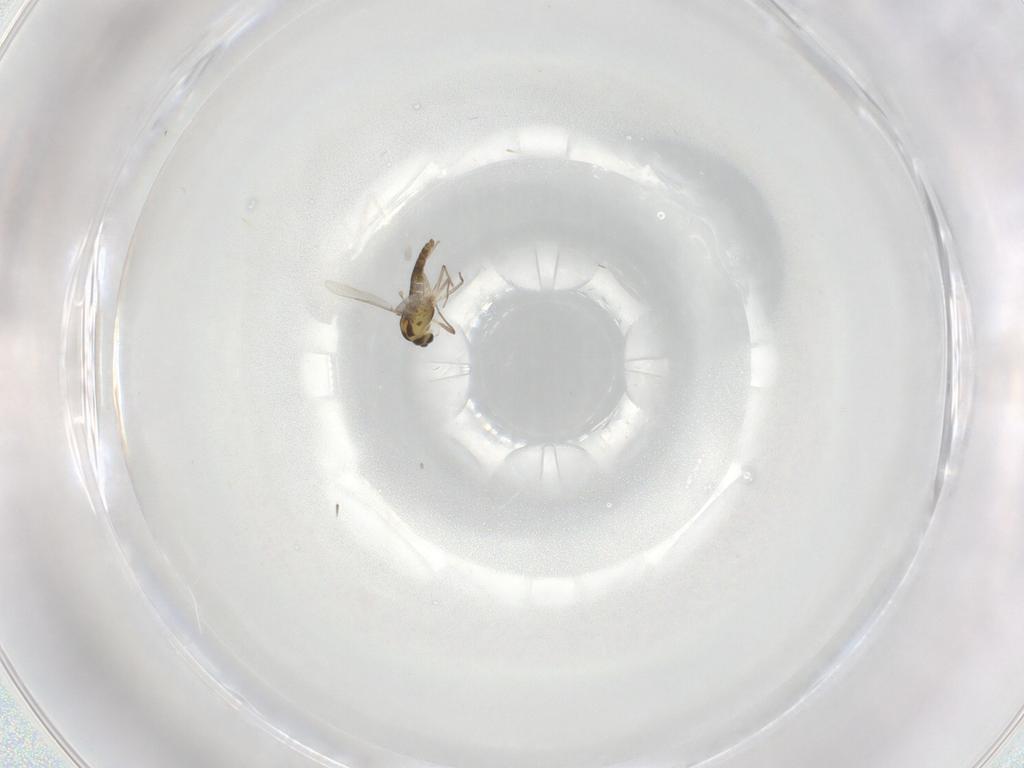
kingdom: Animalia
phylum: Arthropoda
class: Insecta
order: Diptera
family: Chironomidae
